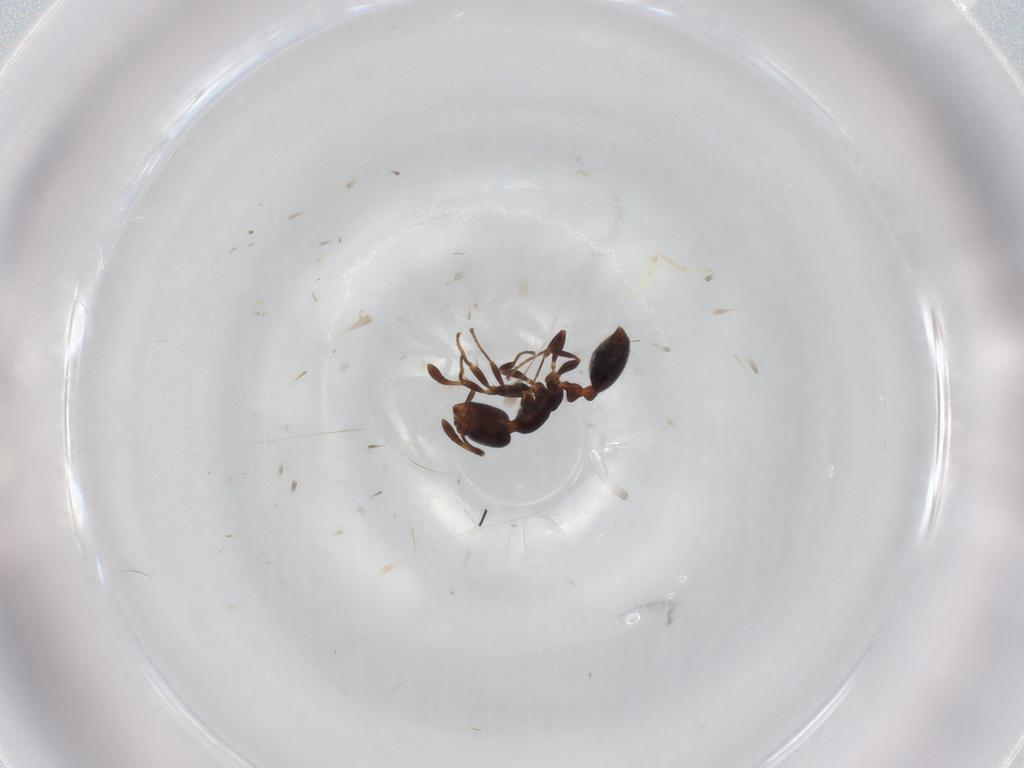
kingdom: Animalia
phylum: Arthropoda
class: Insecta
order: Hymenoptera
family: Formicidae
